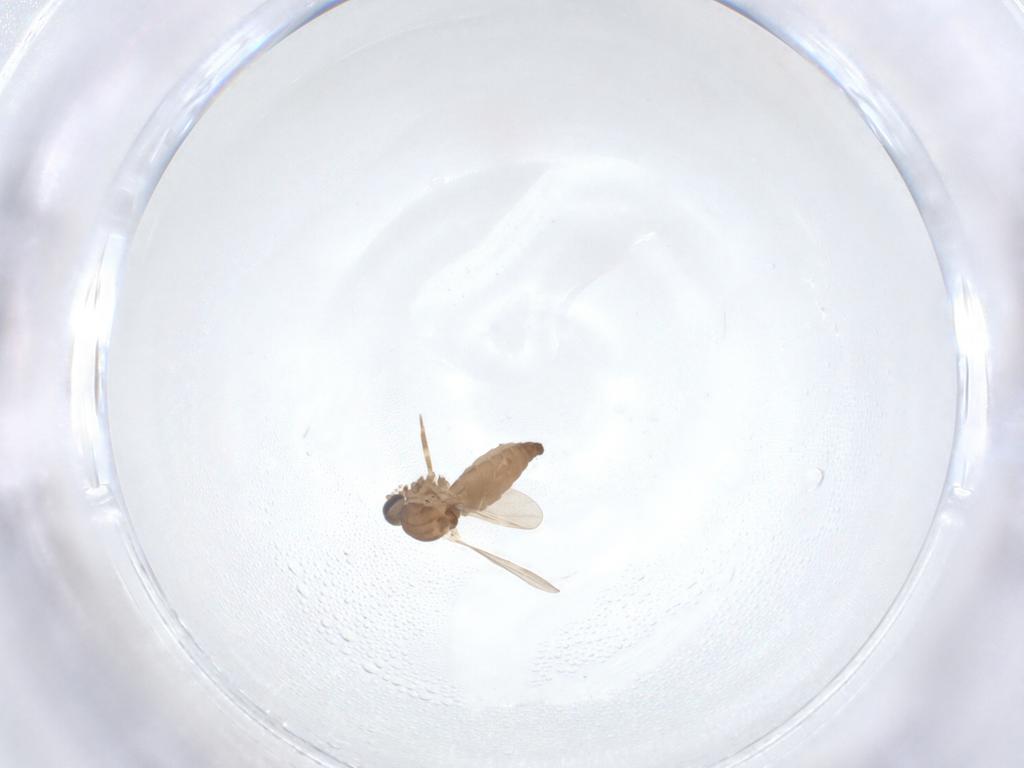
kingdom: Animalia
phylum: Arthropoda
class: Insecta
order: Diptera
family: Ceratopogonidae
